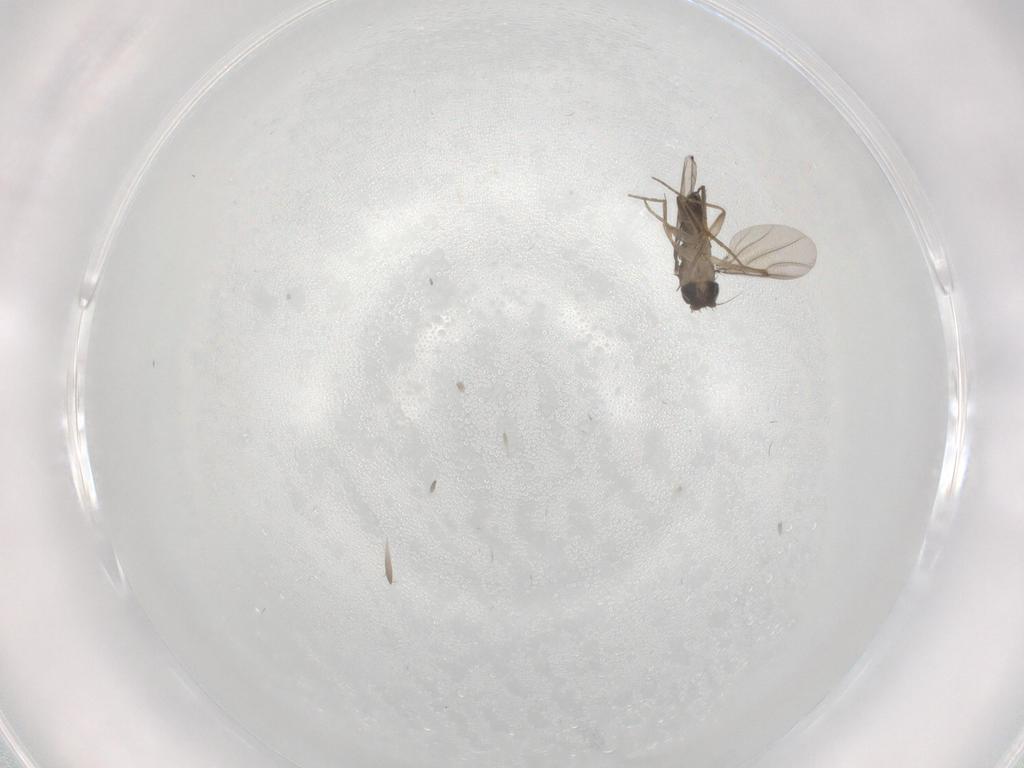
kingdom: Animalia
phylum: Arthropoda
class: Insecta
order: Diptera
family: Phoridae
